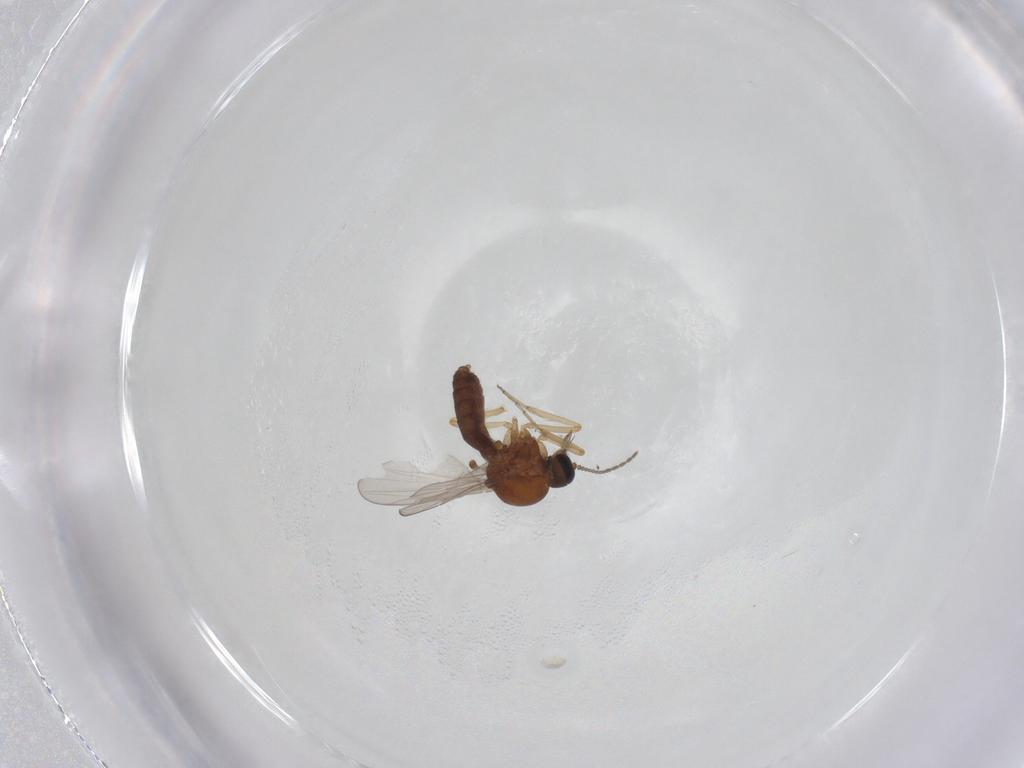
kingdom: Animalia
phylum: Arthropoda
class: Insecta
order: Diptera
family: Ceratopogonidae
